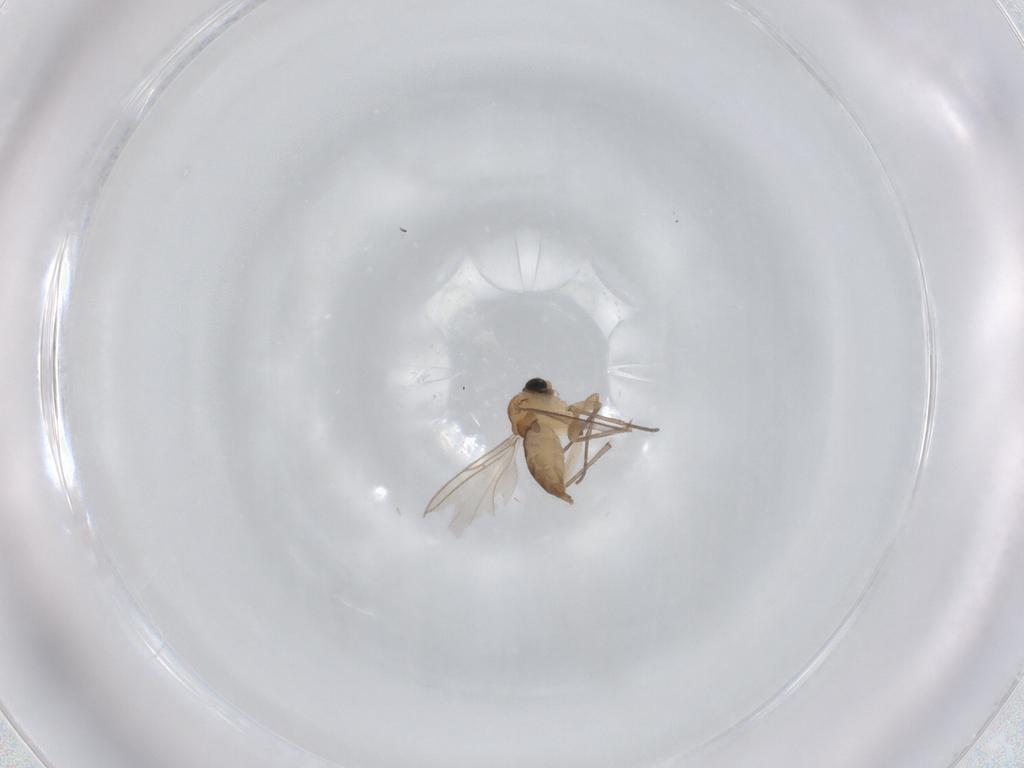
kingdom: Animalia
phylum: Arthropoda
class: Insecta
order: Diptera
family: Sciaridae
